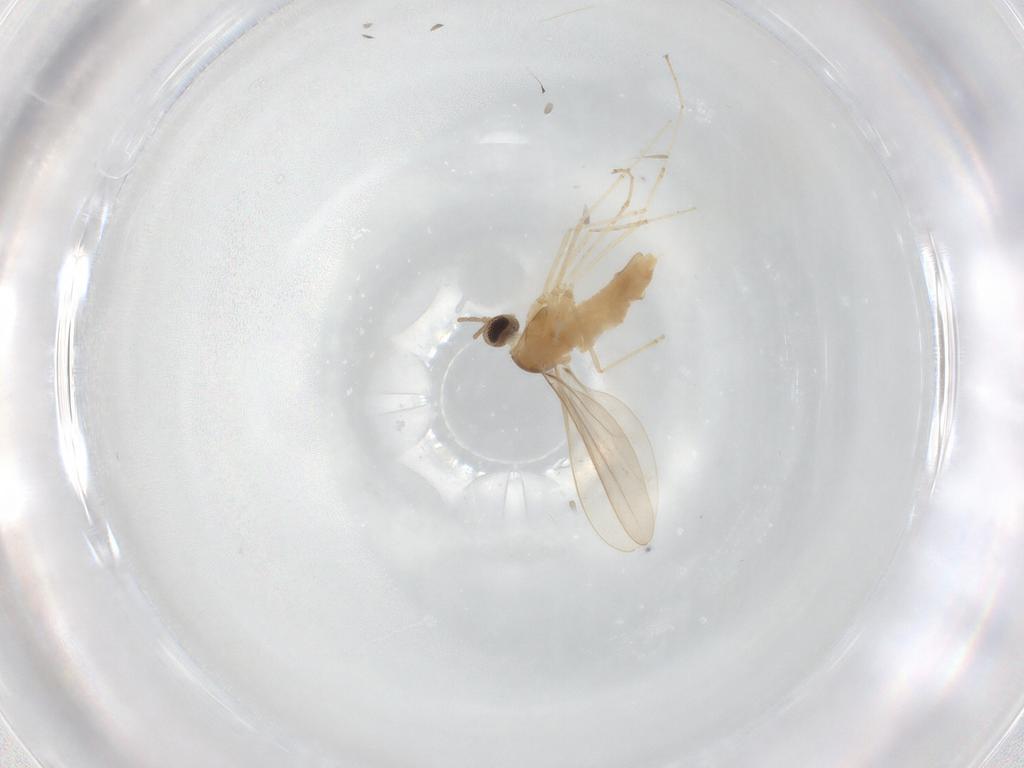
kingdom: Animalia
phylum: Arthropoda
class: Insecta
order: Diptera
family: Cecidomyiidae
